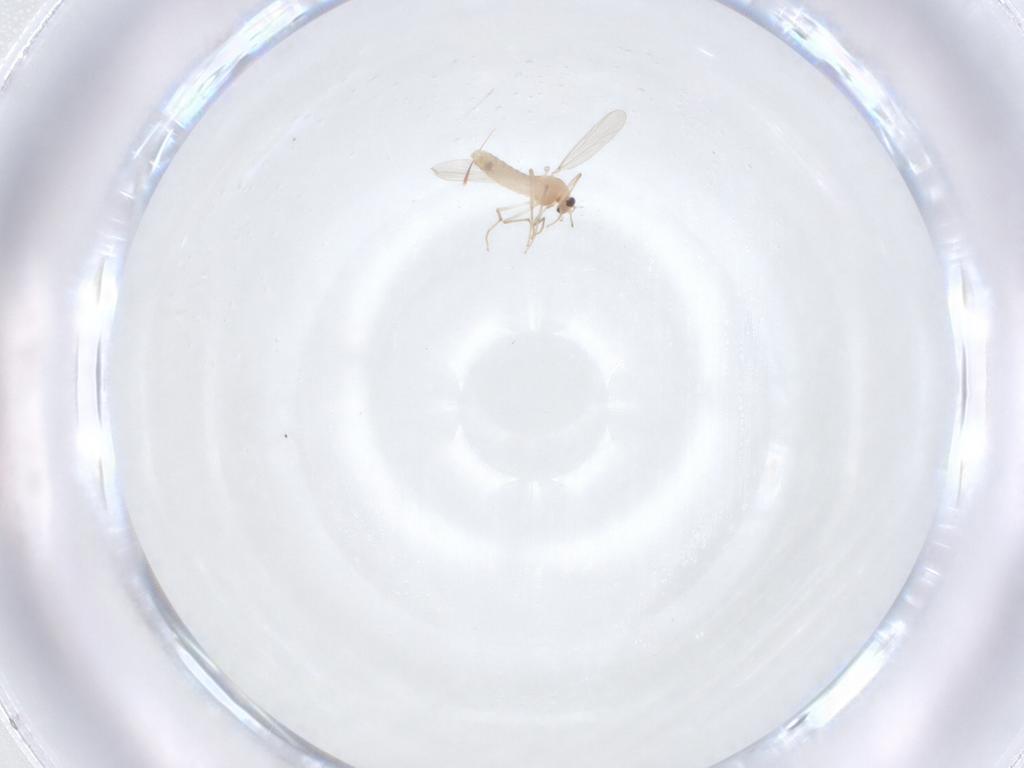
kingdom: Animalia
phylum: Arthropoda
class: Insecta
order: Diptera
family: Chironomidae
